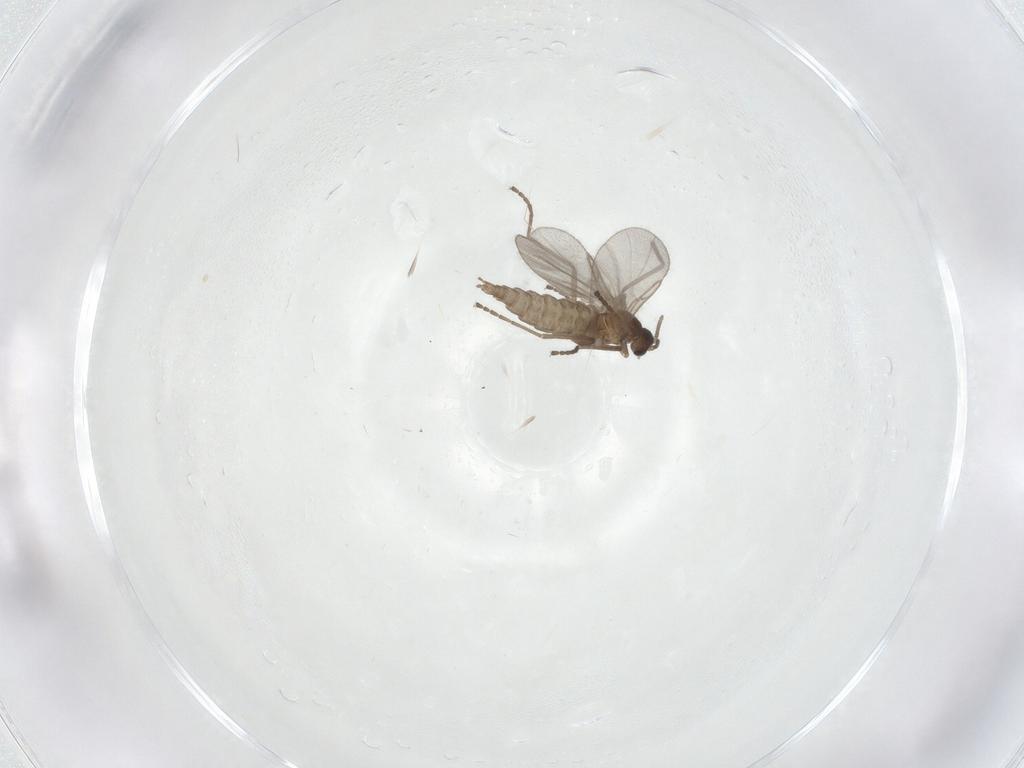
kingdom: Animalia
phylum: Arthropoda
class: Insecta
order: Diptera
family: Cecidomyiidae
